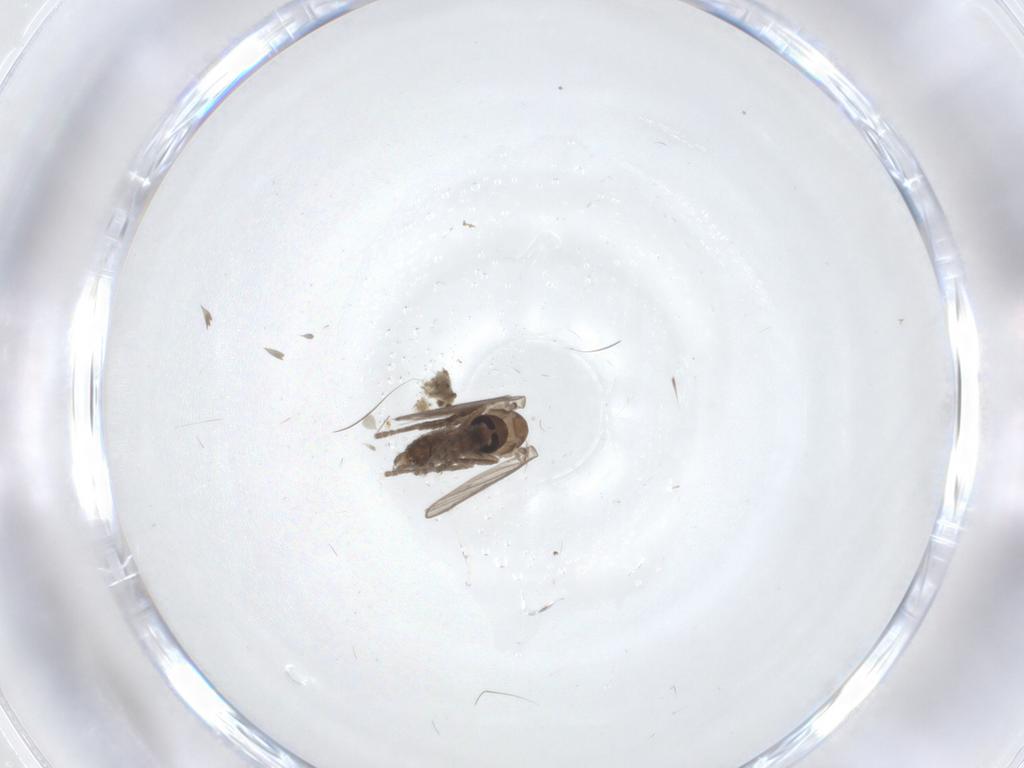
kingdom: Animalia
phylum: Arthropoda
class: Insecta
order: Diptera
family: Psychodidae
